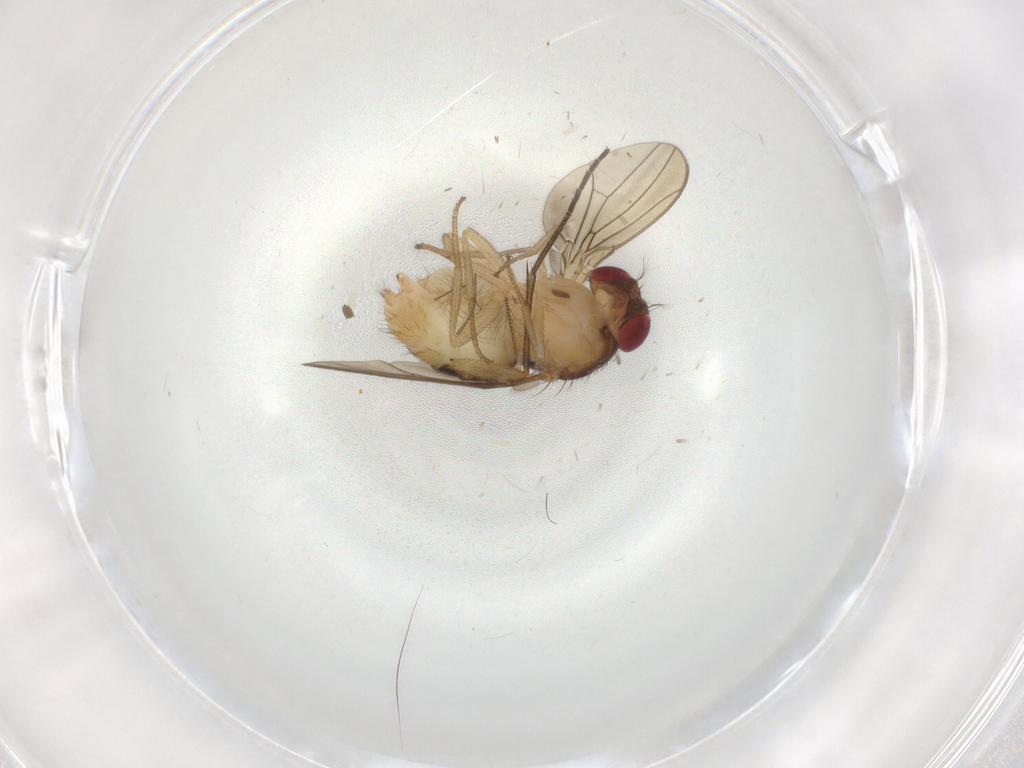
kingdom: Animalia
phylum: Arthropoda
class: Insecta
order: Diptera
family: Drosophilidae
